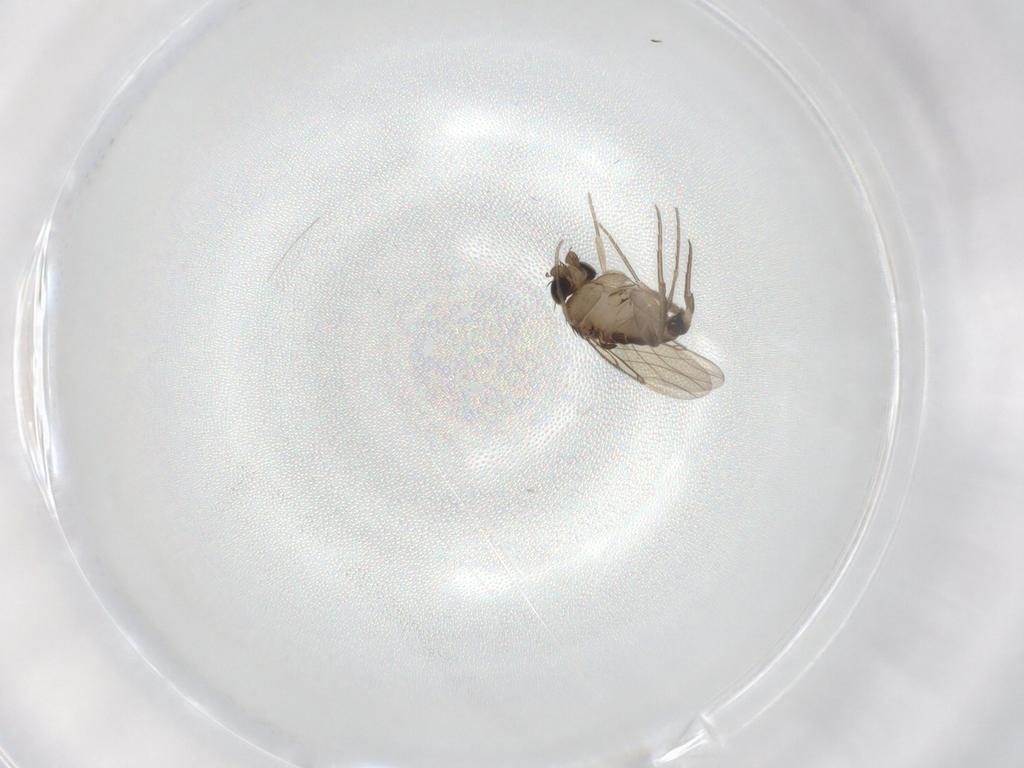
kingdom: Animalia
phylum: Arthropoda
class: Insecta
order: Diptera
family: Phoridae
